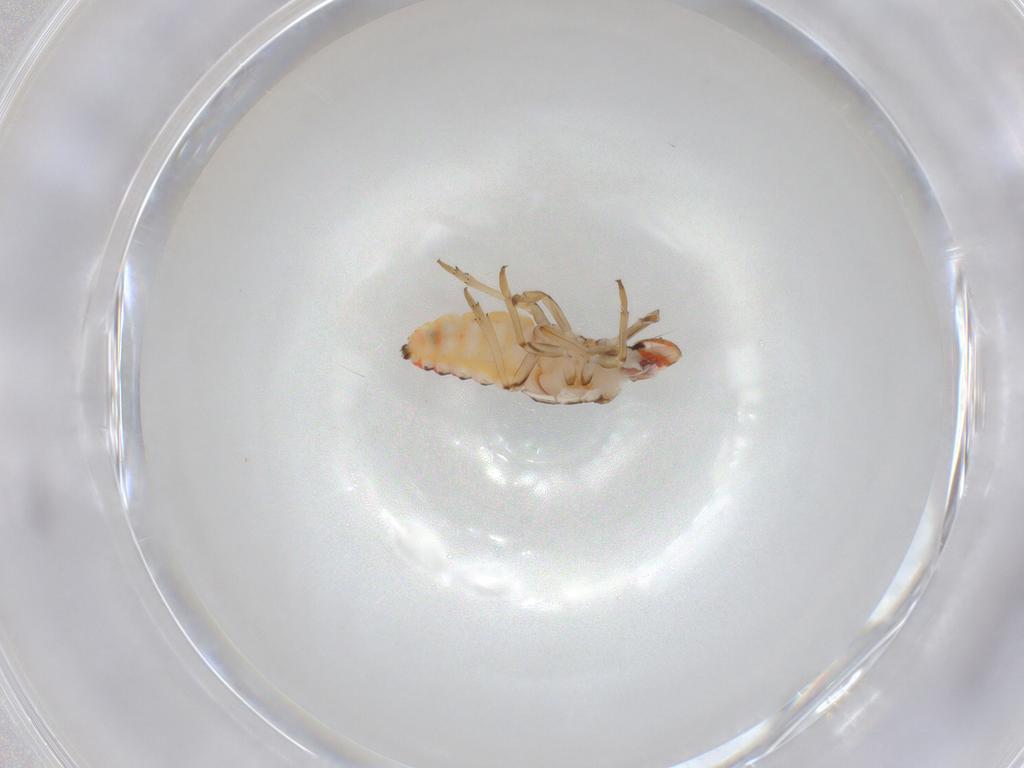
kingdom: Animalia
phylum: Arthropoda
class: Insecta
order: Hemiptera
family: Issidae
